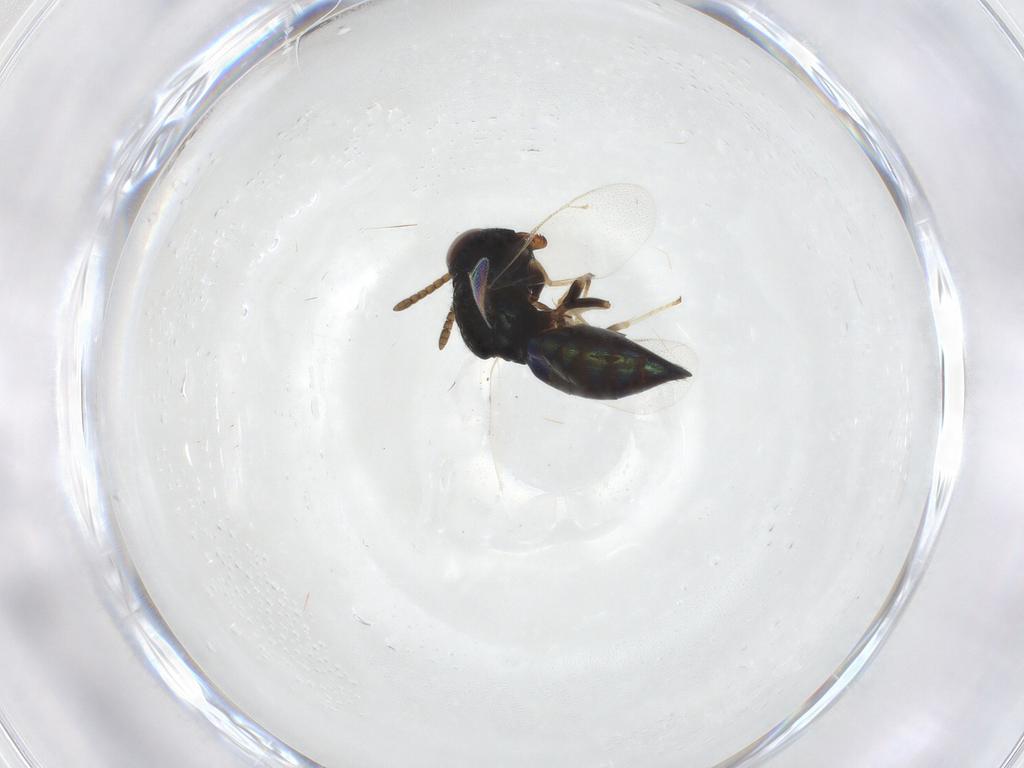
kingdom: Animalia
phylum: Arthropoda
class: Insecta
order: Hymenoptera
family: Pteromalidae
